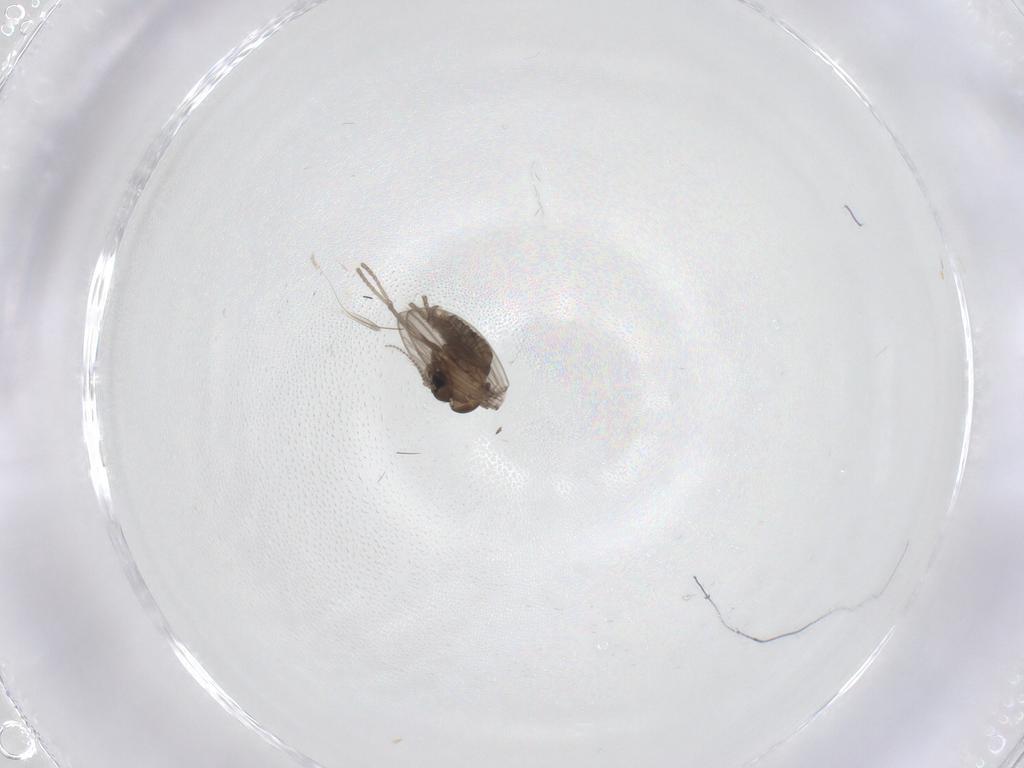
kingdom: Animalia
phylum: Arthropoda
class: Insecta
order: Diptera
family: Psychodidae
